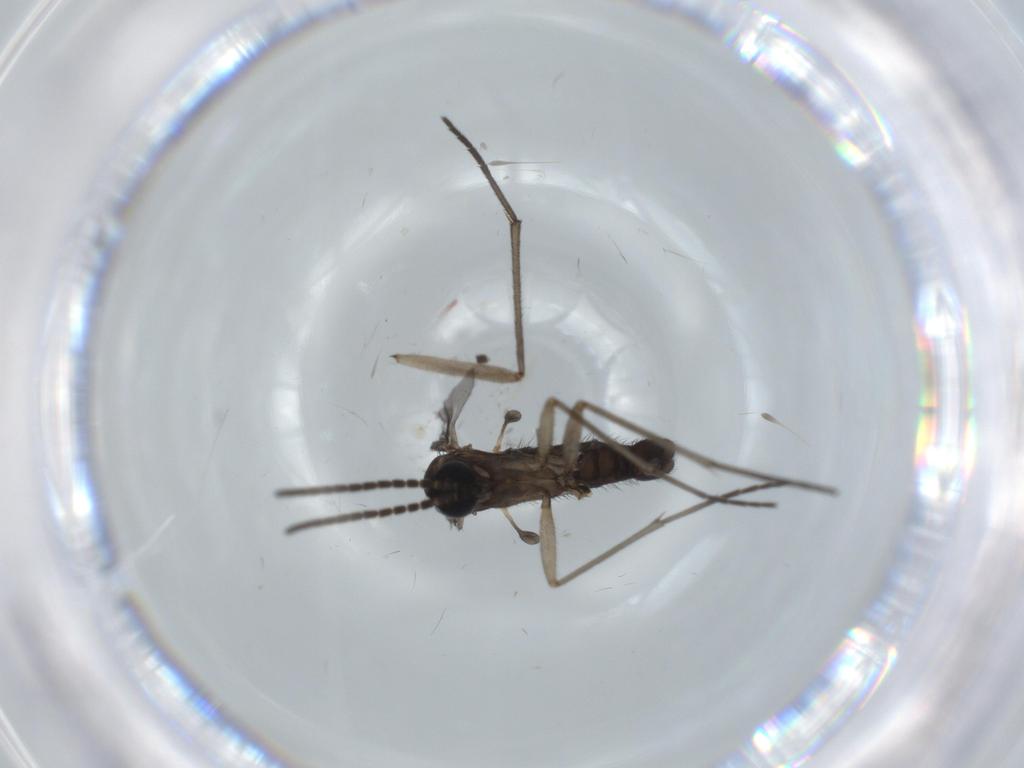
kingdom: Animalia
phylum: Arthropoda
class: Insecta
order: Diptera
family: Sciaridae
